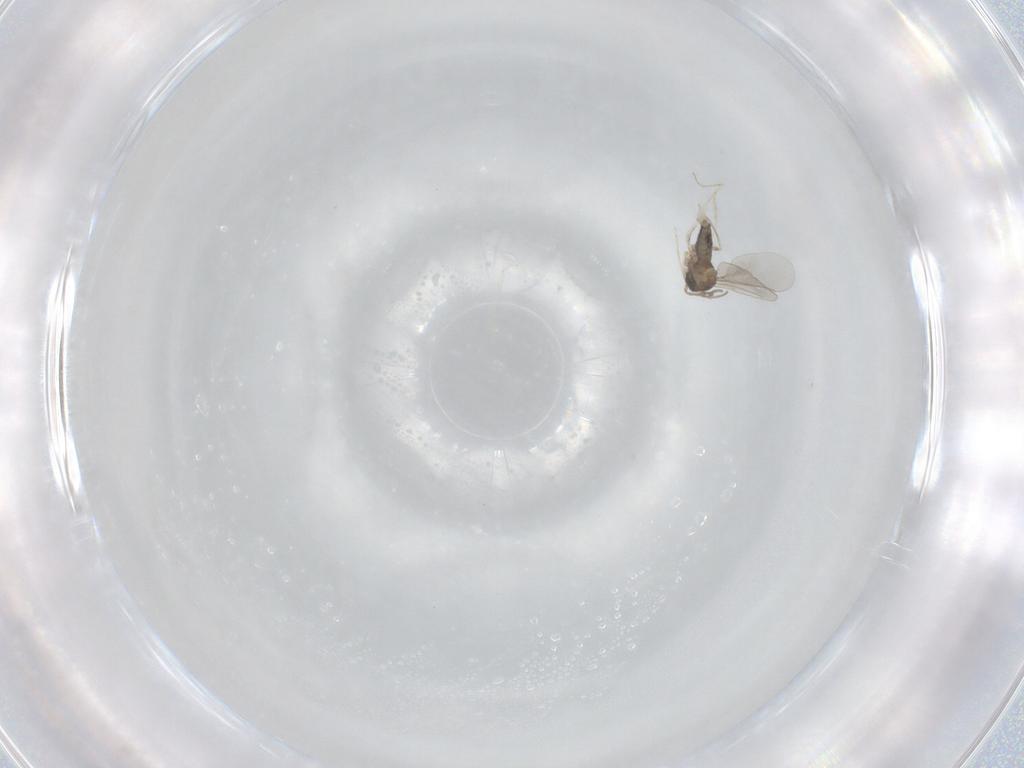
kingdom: Animalia
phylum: Arthropoda
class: Insecta
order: Diptera
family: Cecidomyiidae
